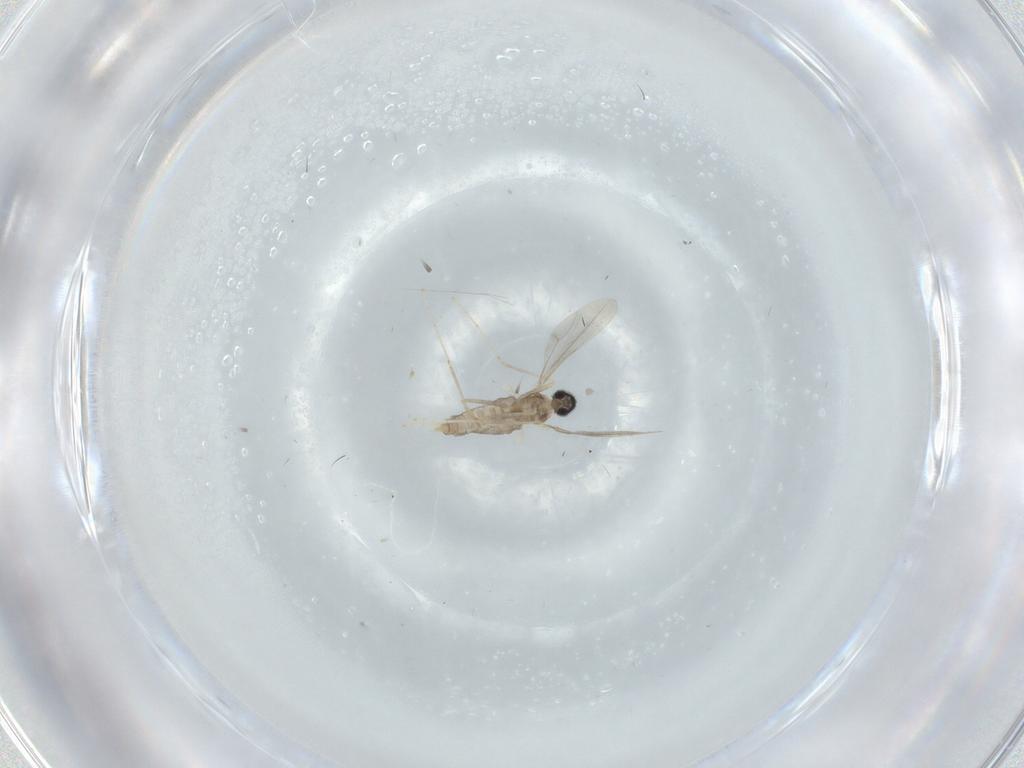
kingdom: Animalia
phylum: Arthropoda
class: Insecta
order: Diptera
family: Cecidomyiidae
